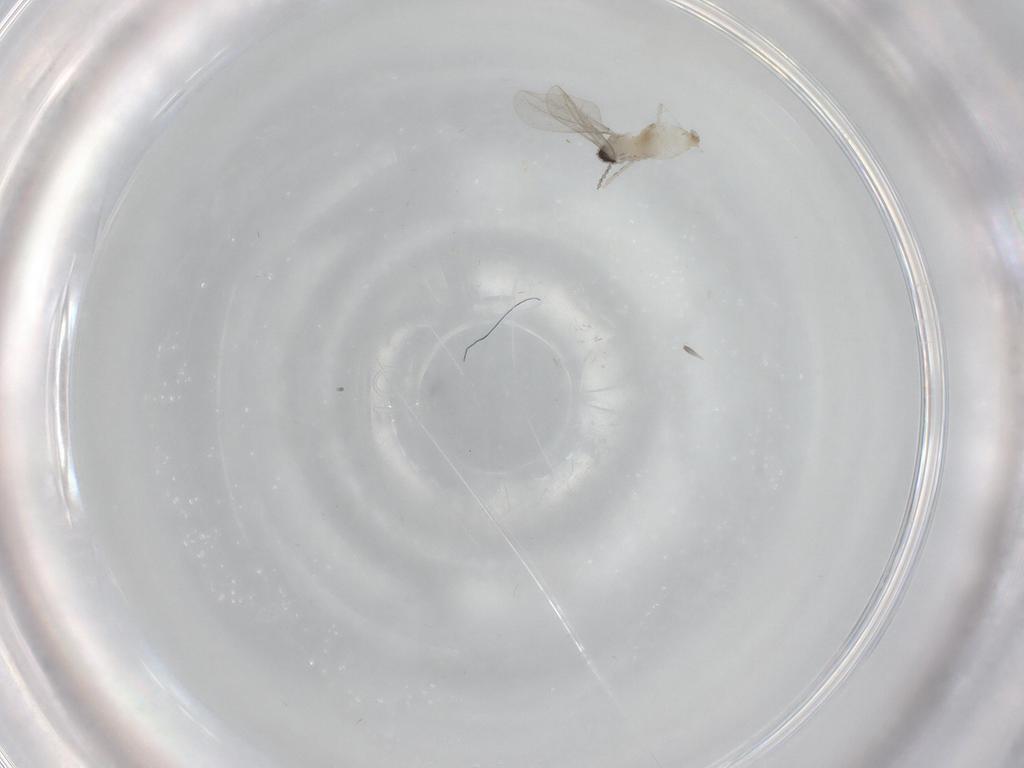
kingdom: Animalia
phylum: Arthropoda
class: Insecta
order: Diptera
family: Cecidomyiidae
